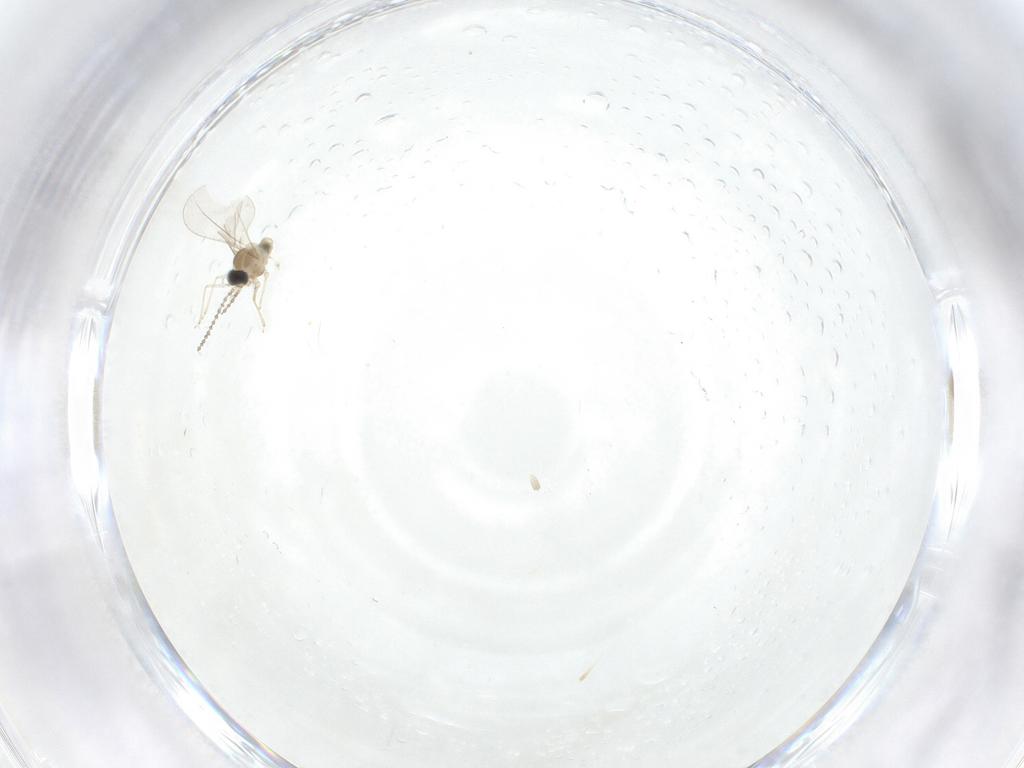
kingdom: Animalia
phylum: Arthropoda
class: Insecta
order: Diptera
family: Cecidomyiidae
